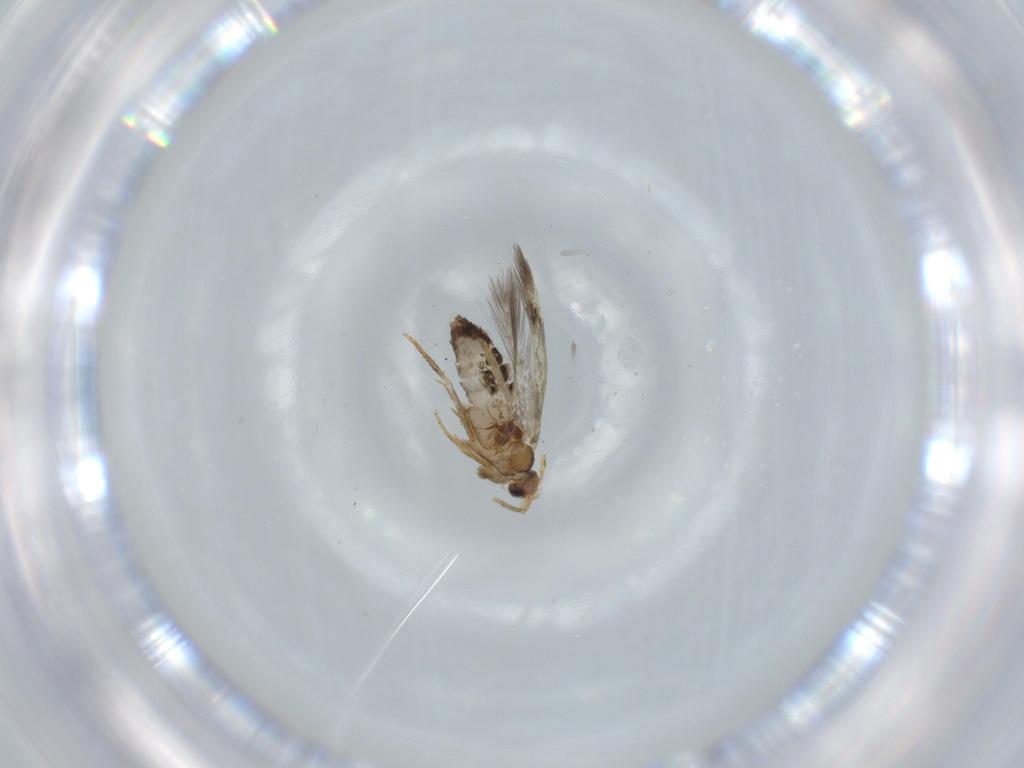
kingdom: Animalia
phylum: Arthropoda
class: Insecta
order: Lepidoptera
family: Nepticulidae
